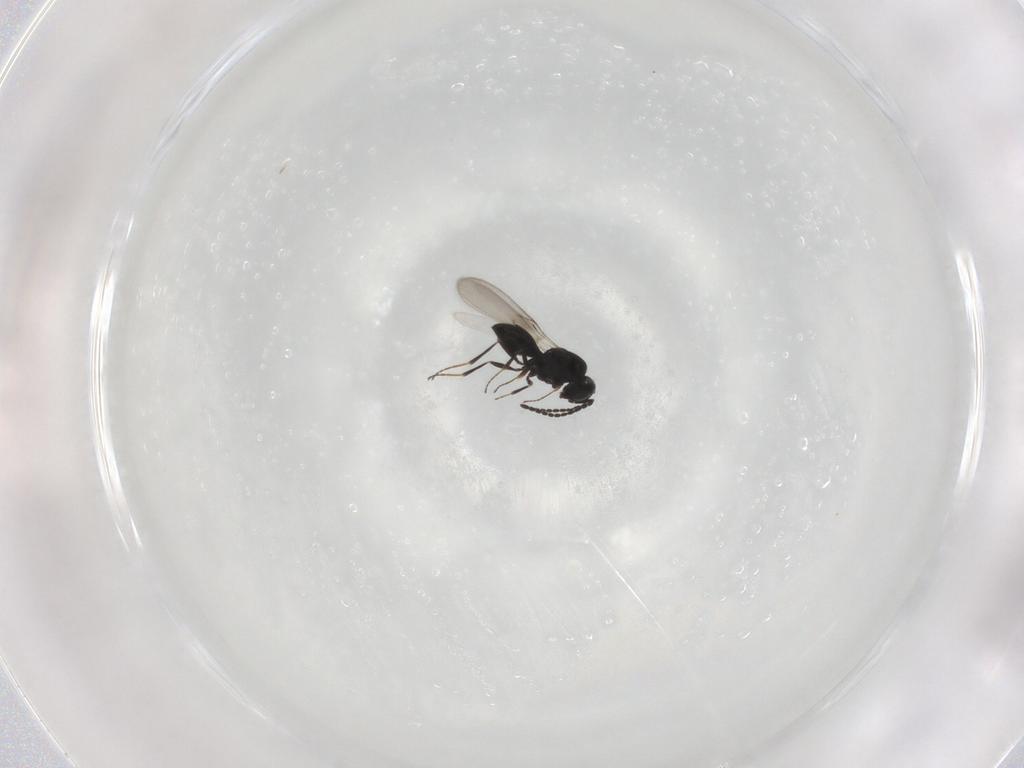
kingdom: Animalia
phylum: Arthropoda
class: Insecta
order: Hymenoptera
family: Scelionidae
